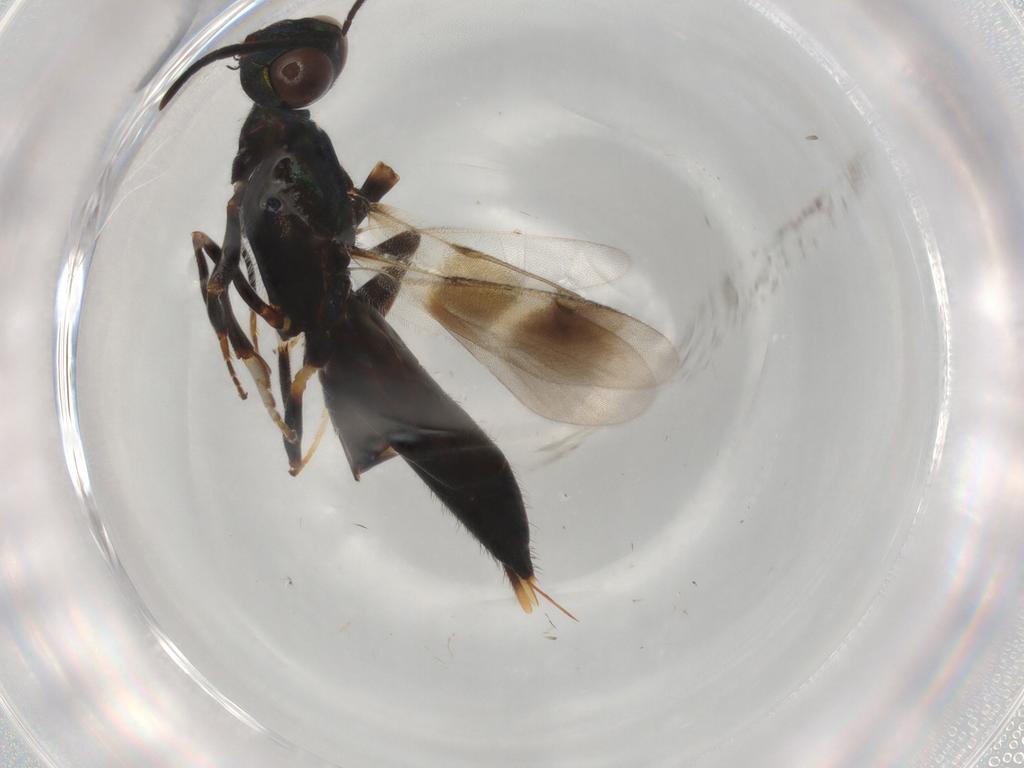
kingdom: Animalia
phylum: Arthropoda
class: Insecta
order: Hymenoptera
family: Eupelmidae
